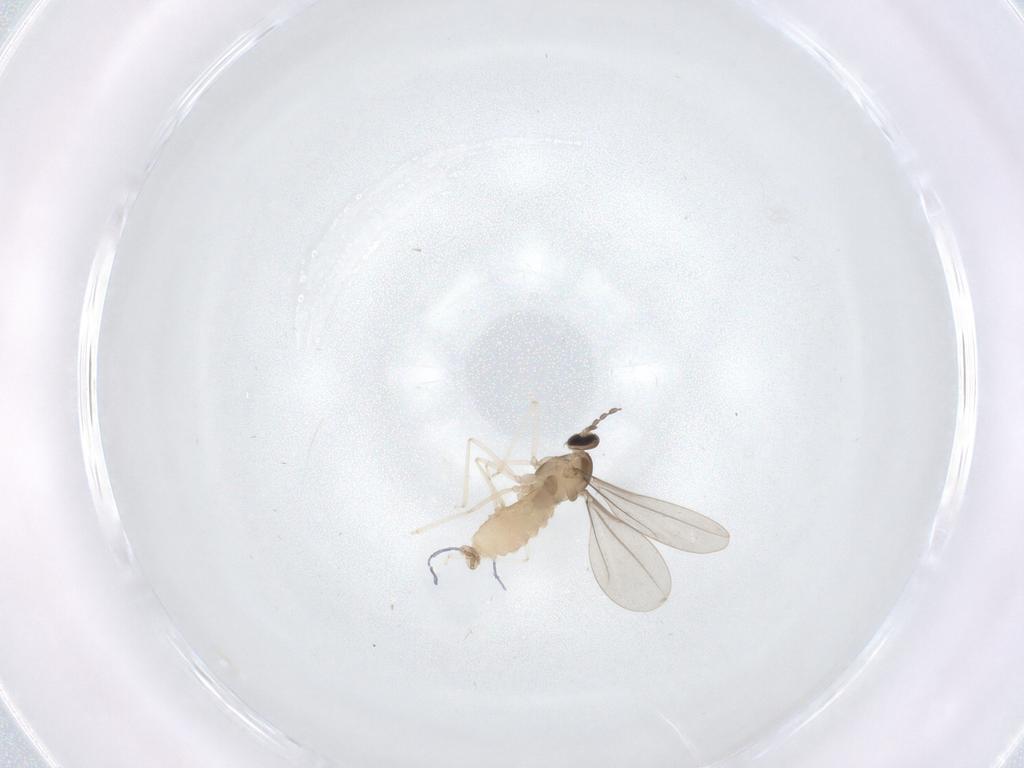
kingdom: Animalia
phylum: Arthropoda
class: Insecta
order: Diptera
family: Cecidomyiidae
